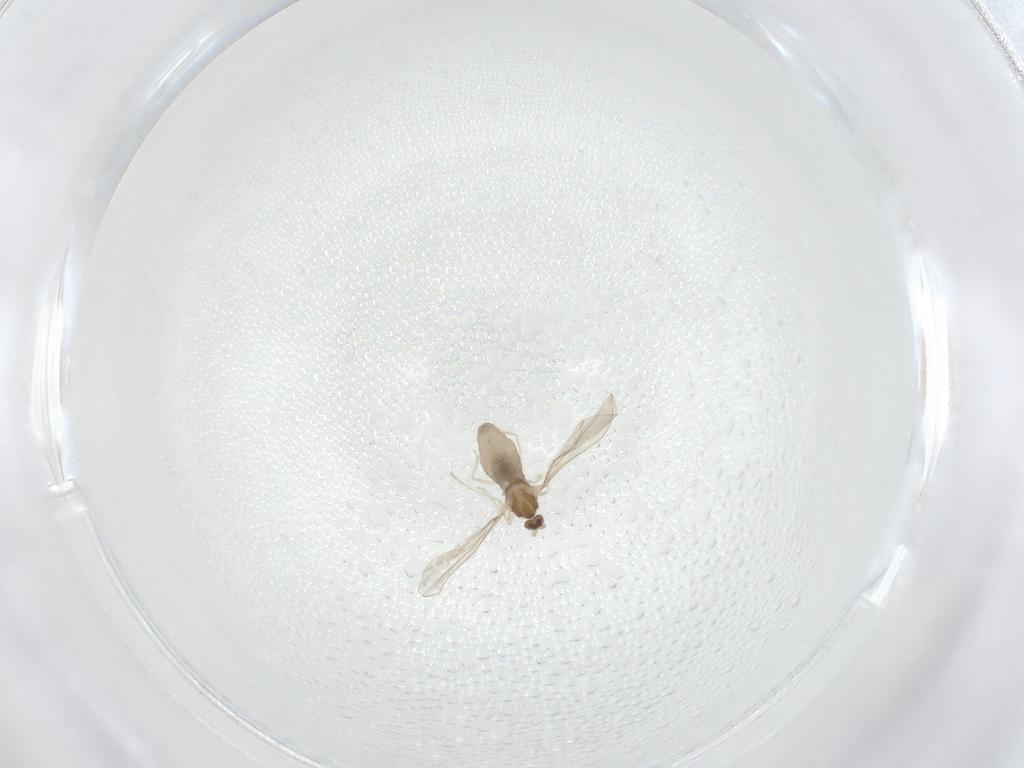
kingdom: Animalia
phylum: Arthropoda
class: Insecta
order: Diptera
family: Cecidomyiidae
